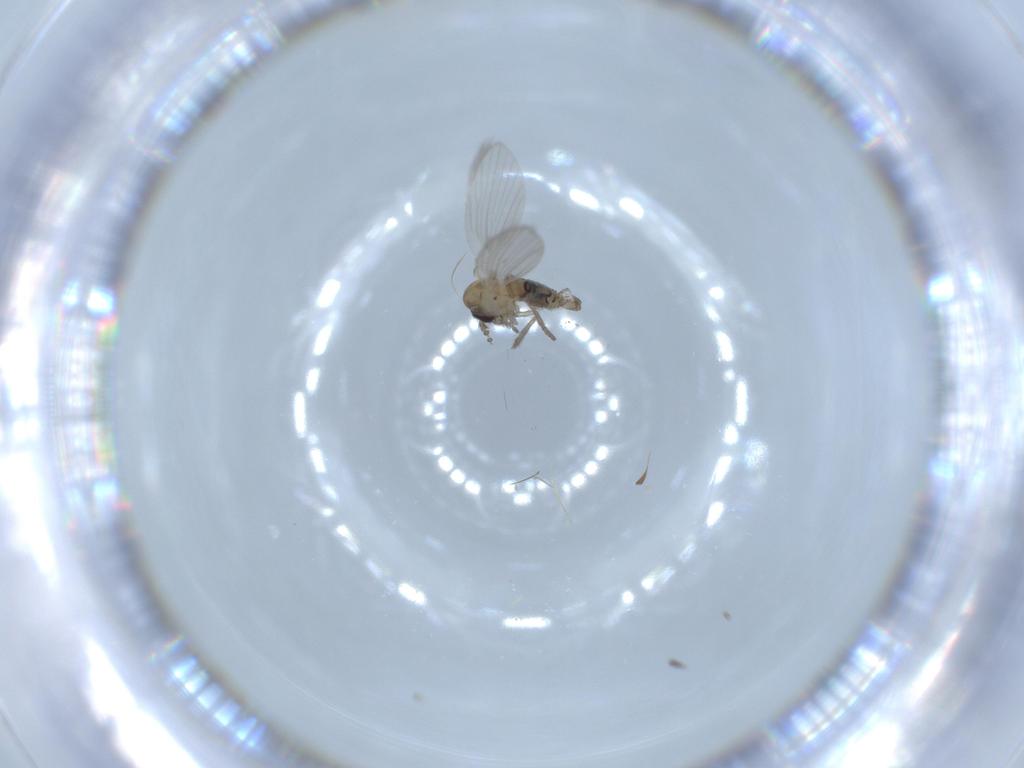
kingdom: Animalia
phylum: Arthropoda
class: Insecta
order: Diptera
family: Psychodidae
